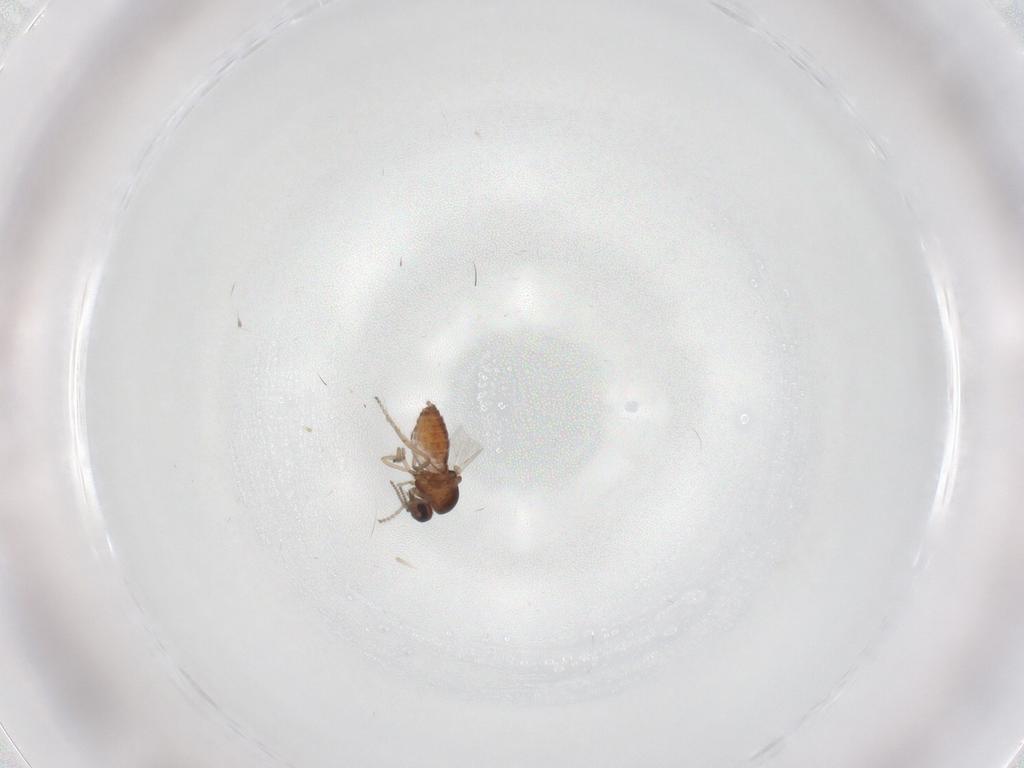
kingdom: Animalia
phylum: Arthropoda
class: Insecta
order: Diptera
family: Ceratopogonidae
